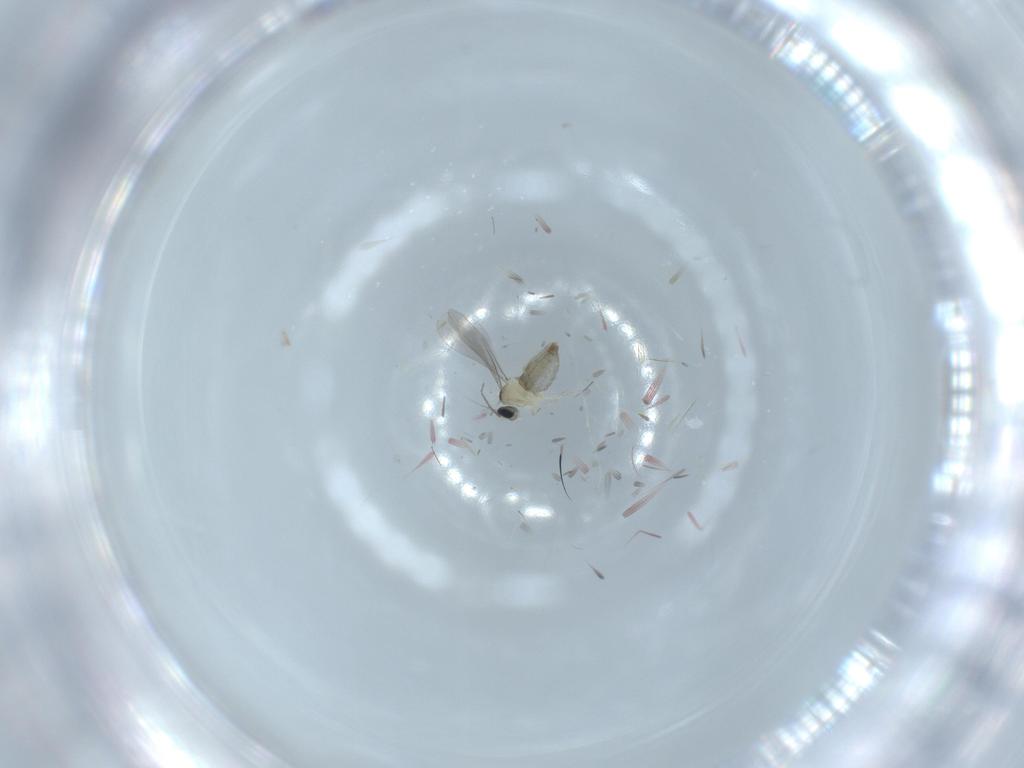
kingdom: Animalia
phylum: Arthropoda
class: Insecta
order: Diptera
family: Cecidomyiidae
